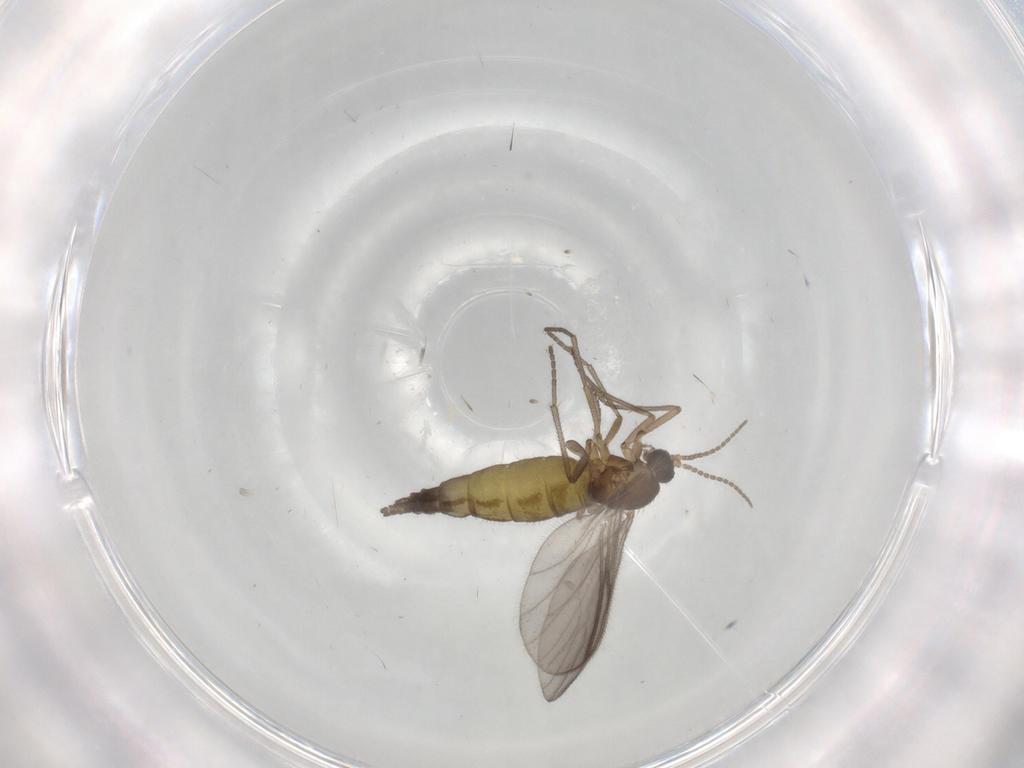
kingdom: Animalia
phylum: Arthropoda
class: Insecta
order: Diptera
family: Sciaridae
